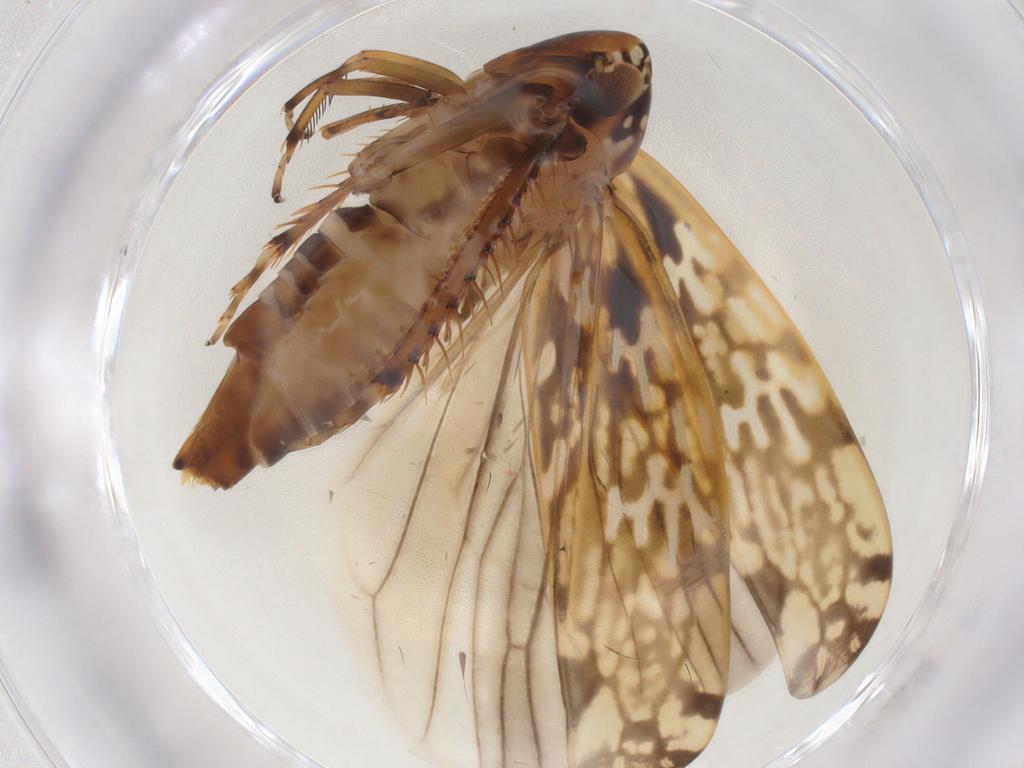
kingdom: Animalia
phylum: Arthropoda
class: Insecta
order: Hemiptera
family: Cicadellidae
